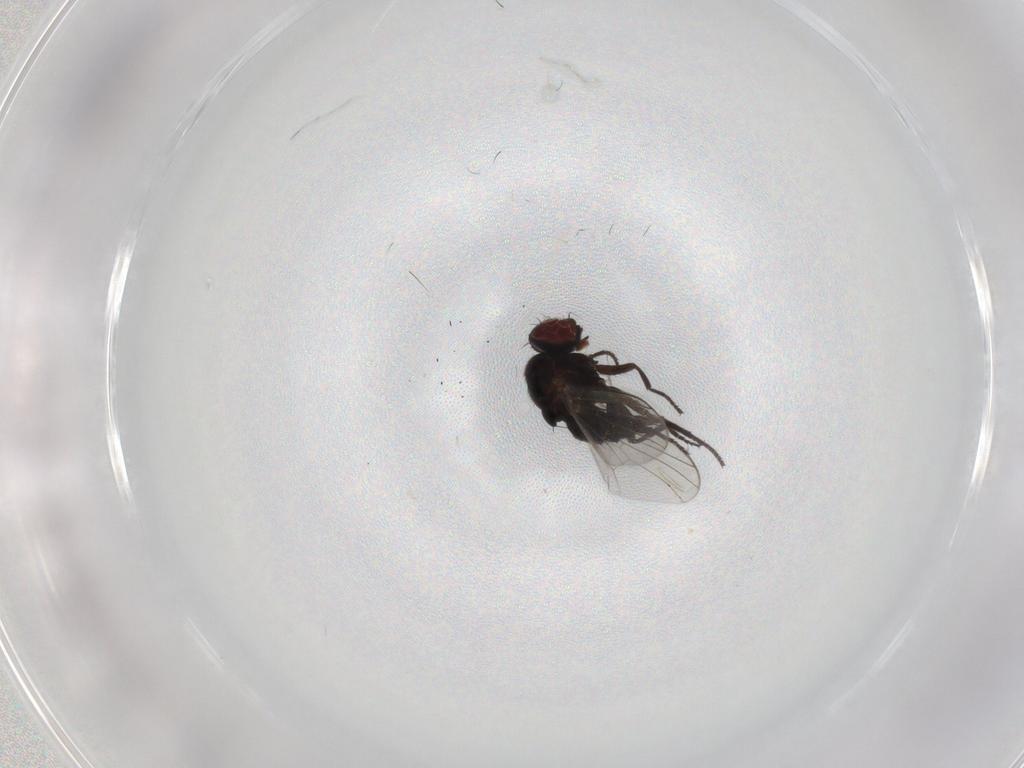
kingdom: Animalia
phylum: Arthropoda
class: Insecta
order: Diptera
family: Agromyzidae
